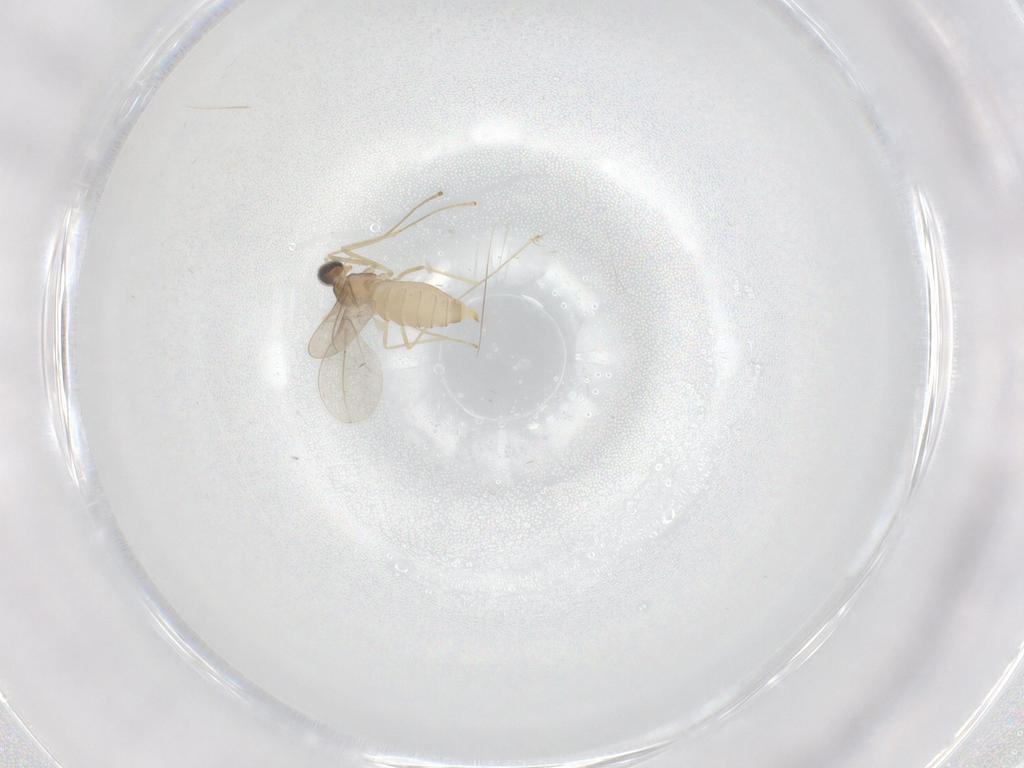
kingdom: Animalia
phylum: Arthropoda
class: Insecta
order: Diptera
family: Cecidomyiidae
